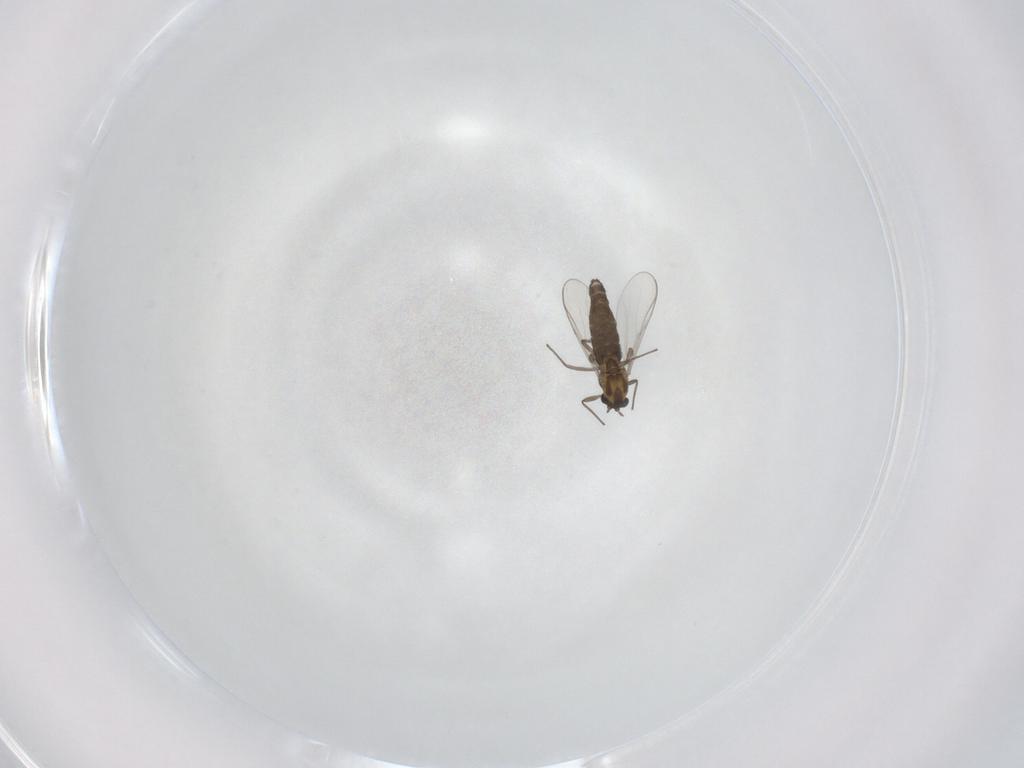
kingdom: Animalia
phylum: Arthropoda
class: Insecta
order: Diptera
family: Chironomidae
